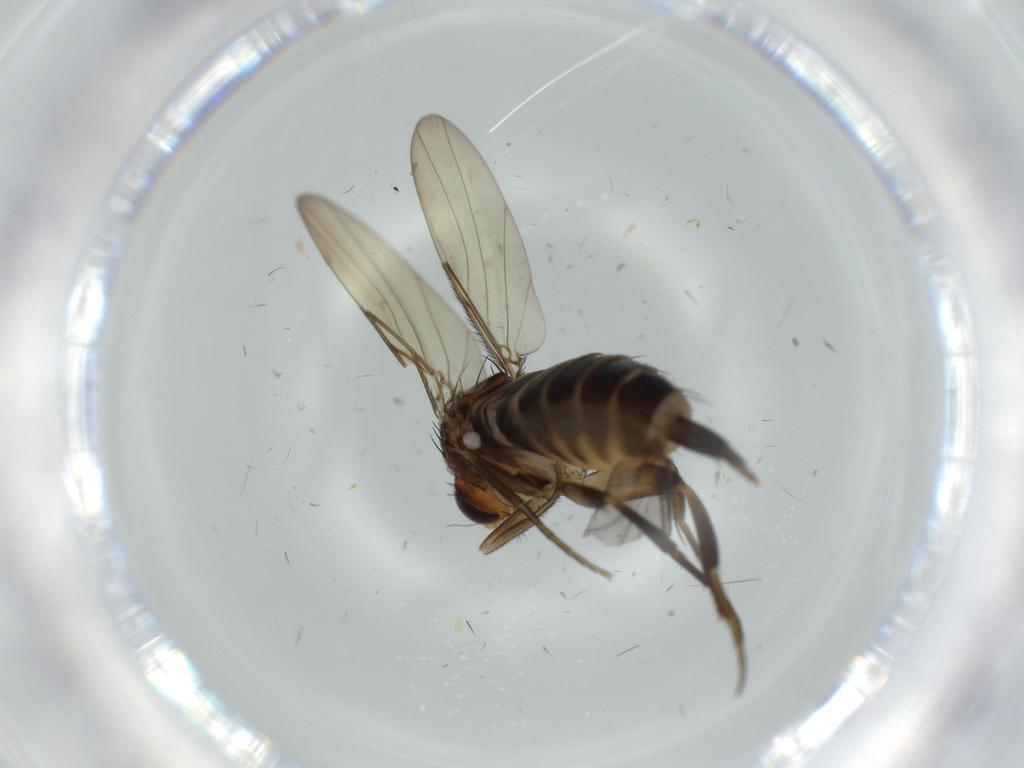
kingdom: Animalia
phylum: Arthropoda
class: Insecta
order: Diptera
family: Phoridae
